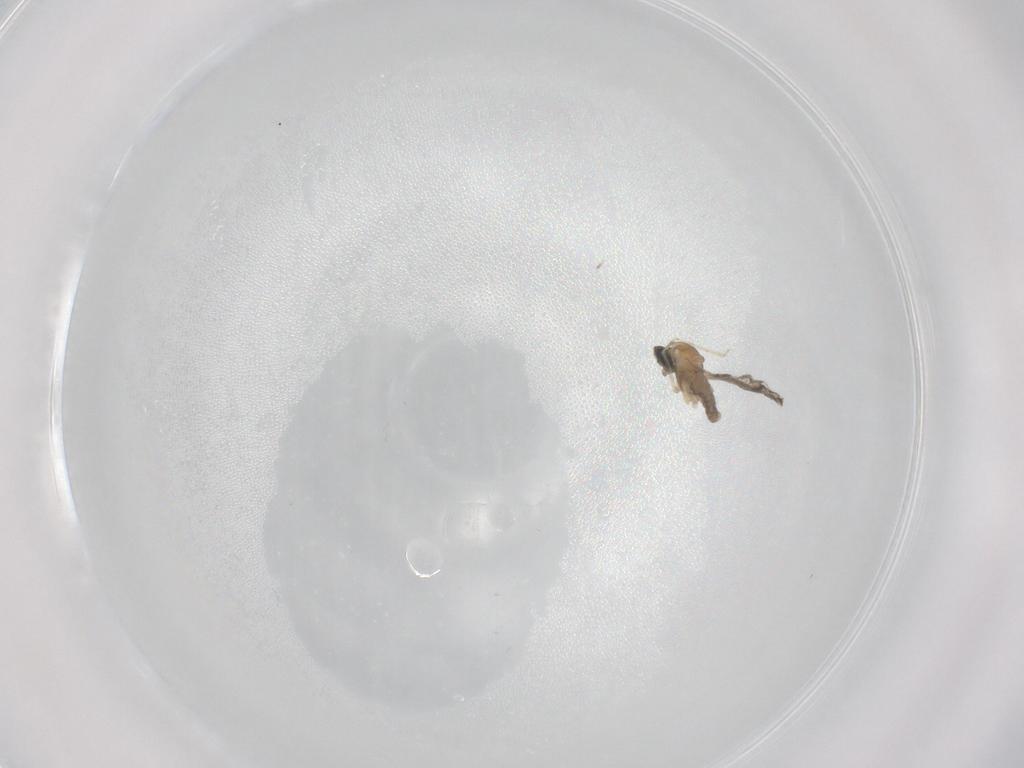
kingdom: Animalia
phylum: Arthropoda
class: Insecta
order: Diptera
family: Cecidomyiidae
